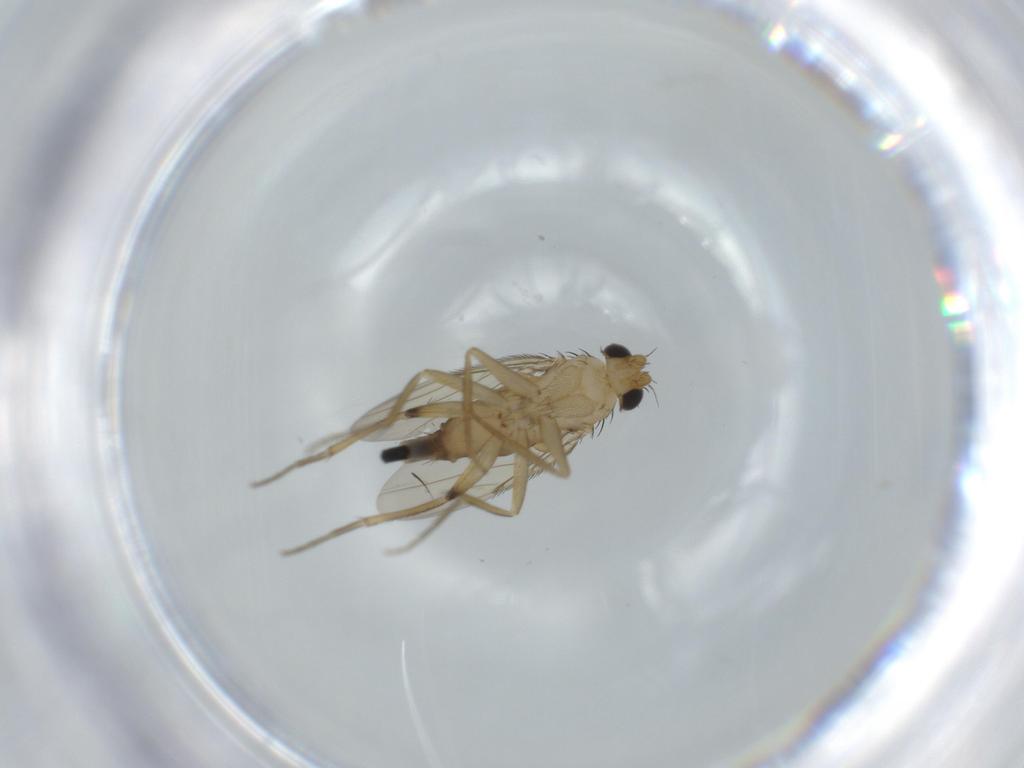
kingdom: Animalia
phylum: Arthropoda
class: Insecta
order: Diptera
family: Phoridae
